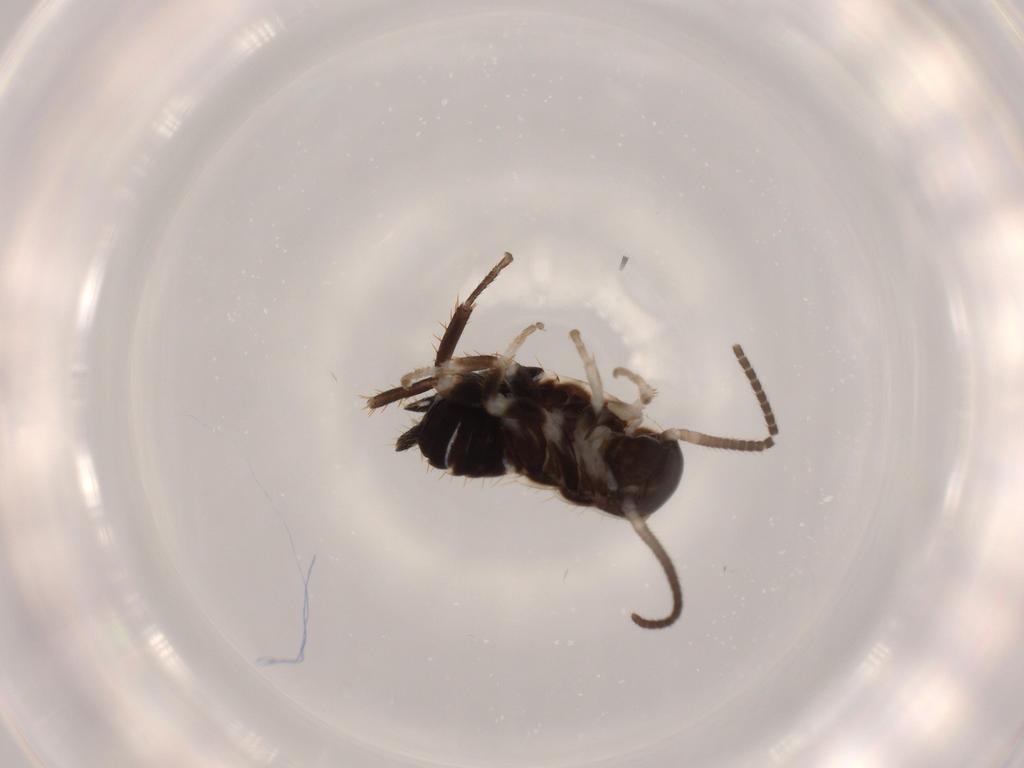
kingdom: Animalia
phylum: Arthropoda
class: Insecta
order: Blattodea
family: Ectobiidae
